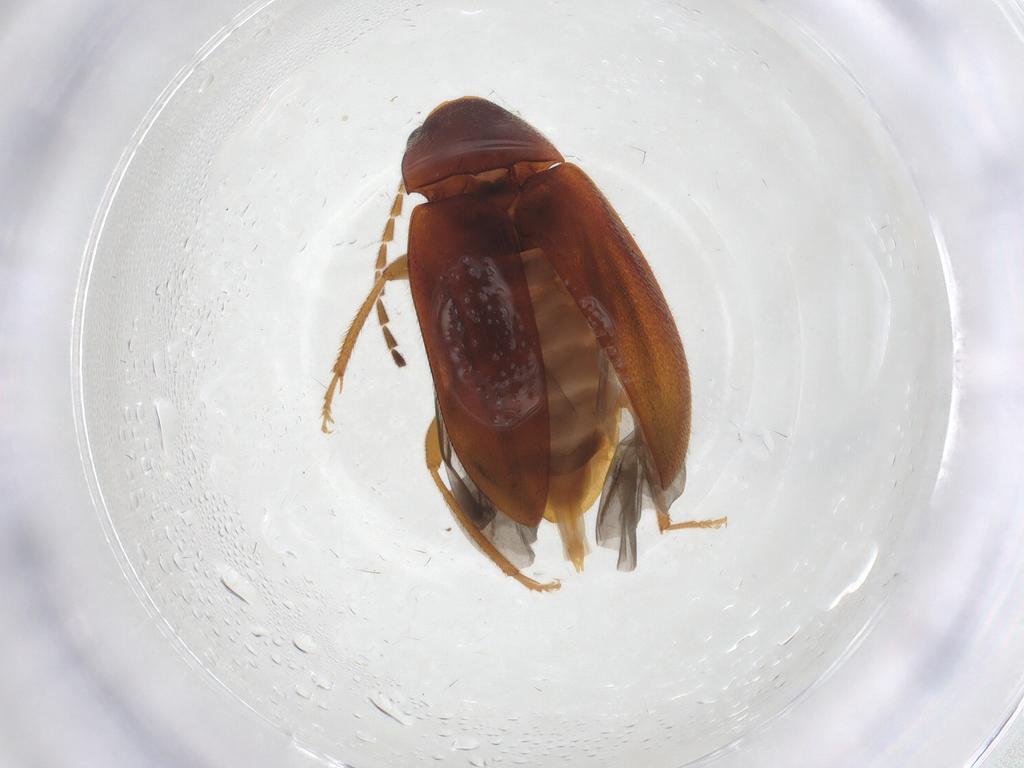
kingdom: Animalia
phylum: Arthropoda
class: Insecta
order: Coleoptera
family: Ptilodactylidae
